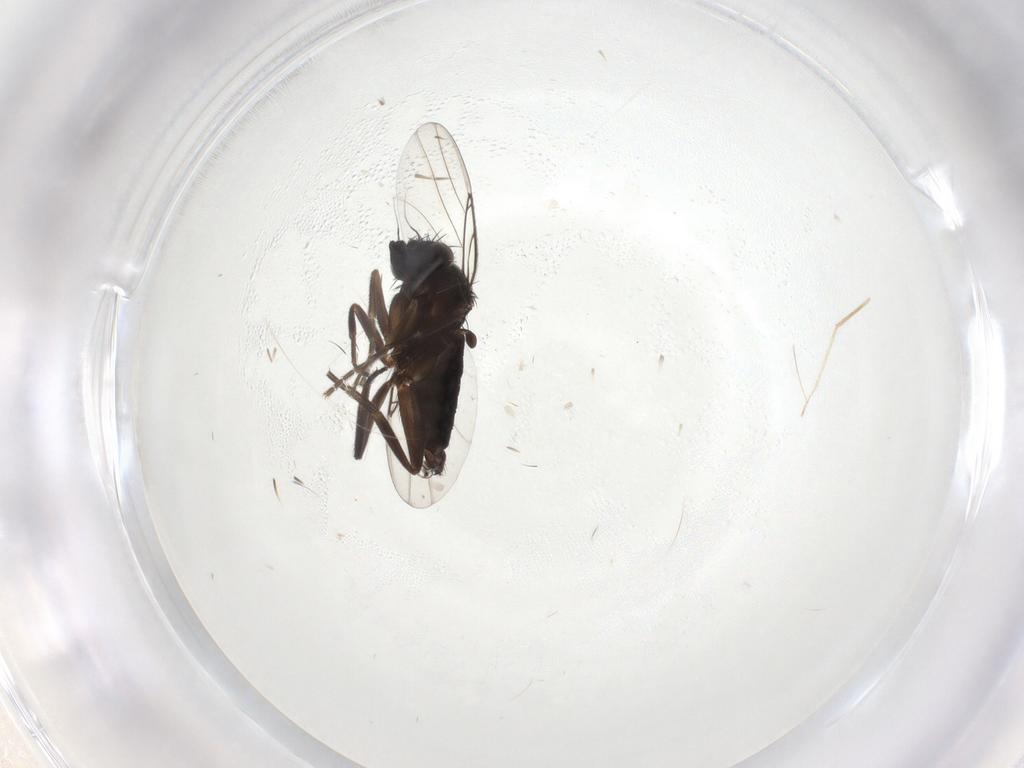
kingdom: Animalia
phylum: Arthropoda
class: Insecta
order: Diptera
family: Phoridae
